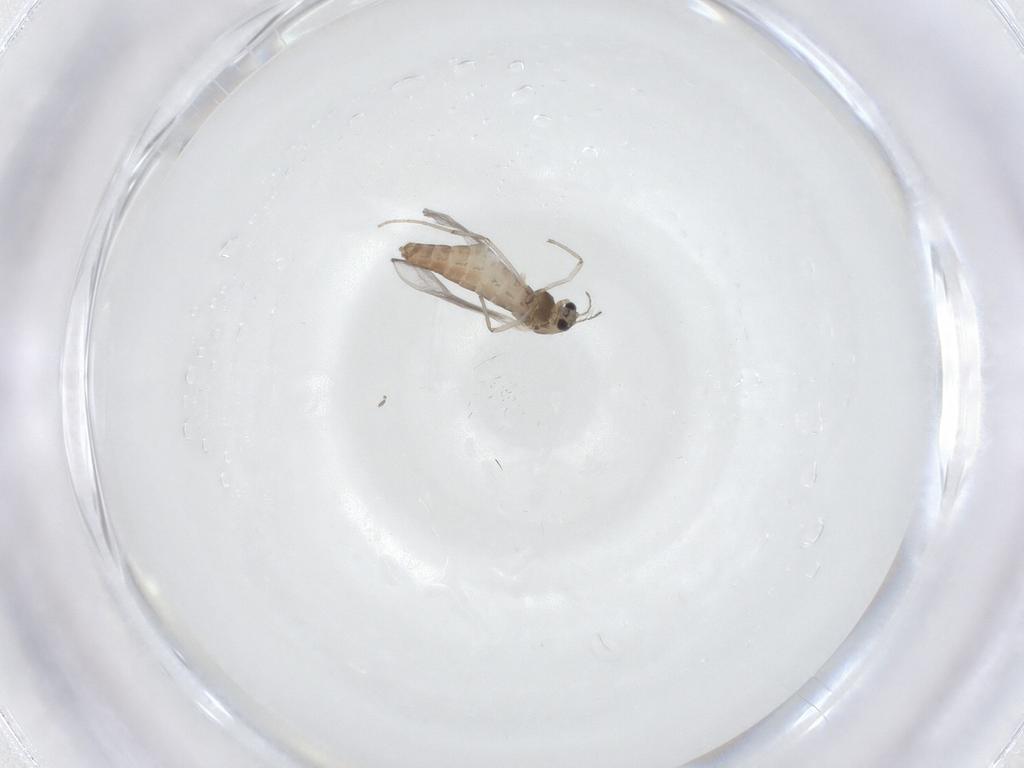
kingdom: Animalia
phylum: Arthropoda
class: Insecta
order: Diptera
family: Chironomidae
